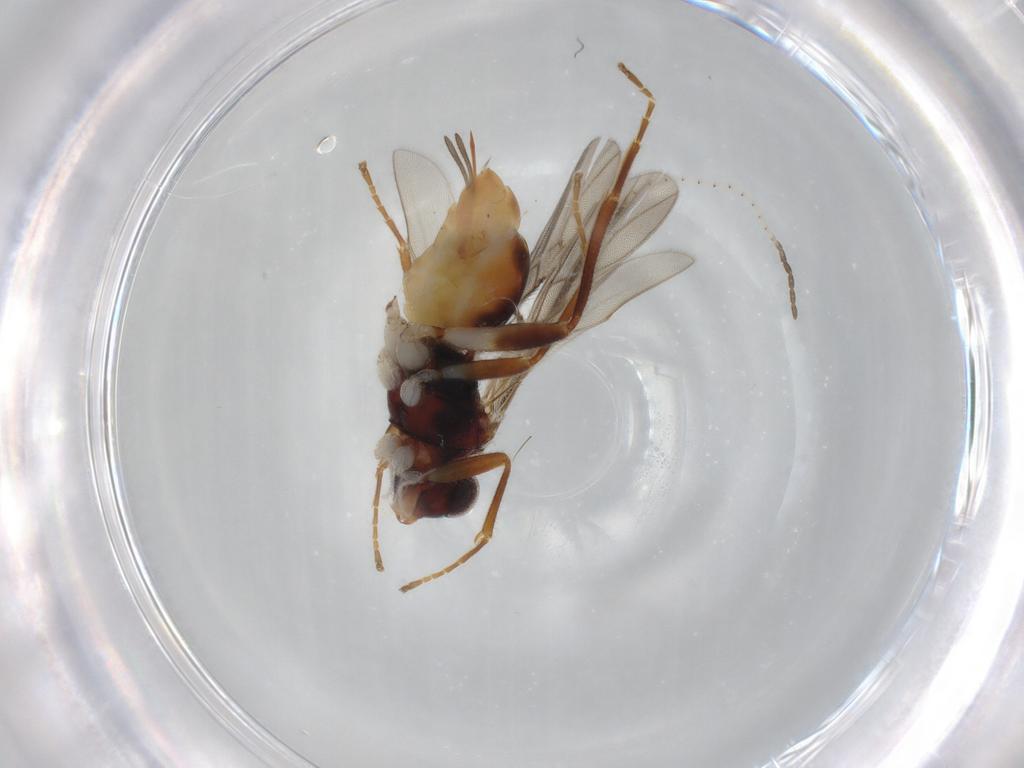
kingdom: Animalia
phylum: Arthropoda
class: Insecta
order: Hymenoptera
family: Braconidae
